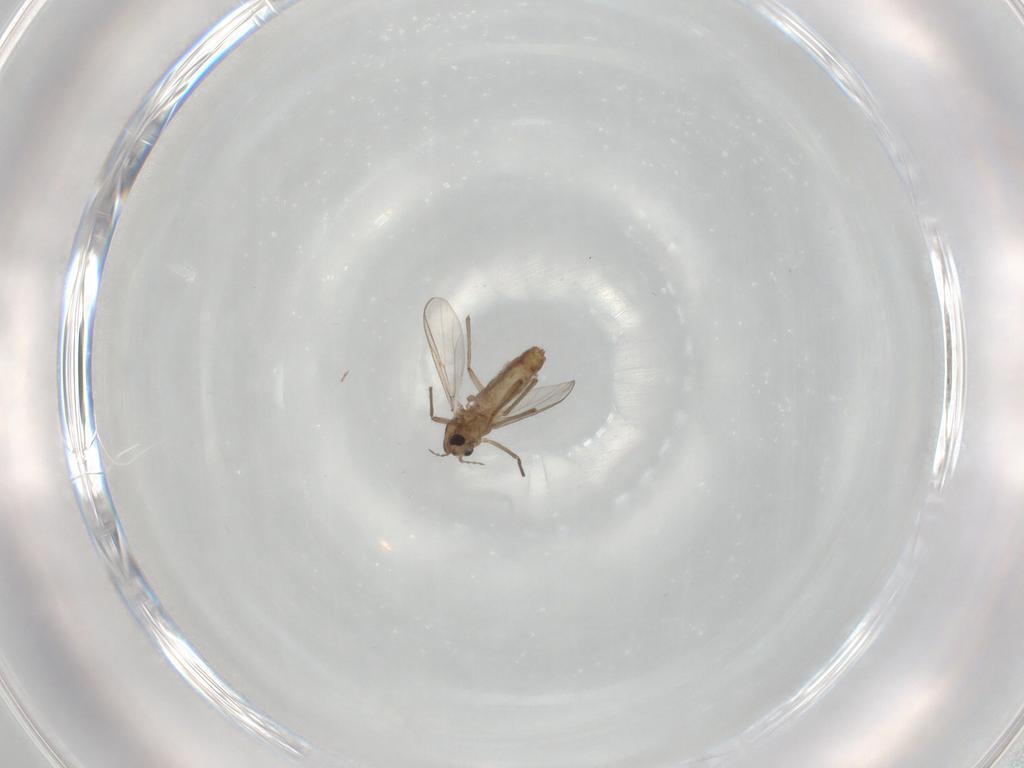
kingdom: Animalia
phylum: Arthropoda
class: Insecta
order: Diptera
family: Chironomidae
